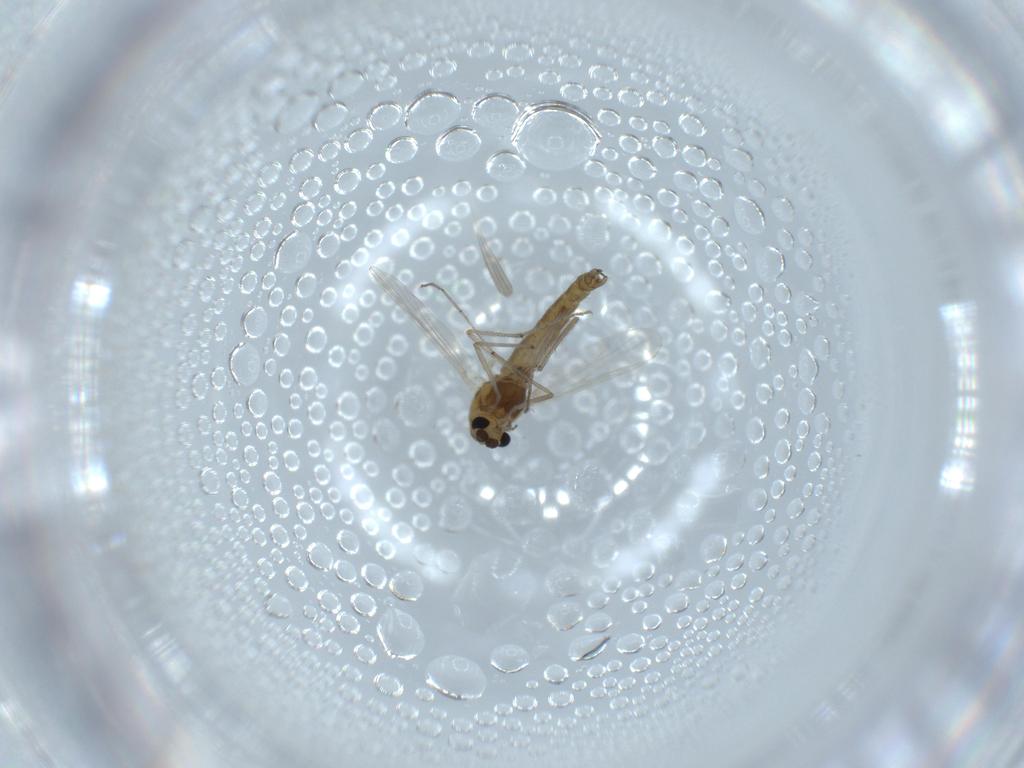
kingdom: Animalia
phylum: Arthropoda
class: Insecta
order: Diptera
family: Chironomidae
